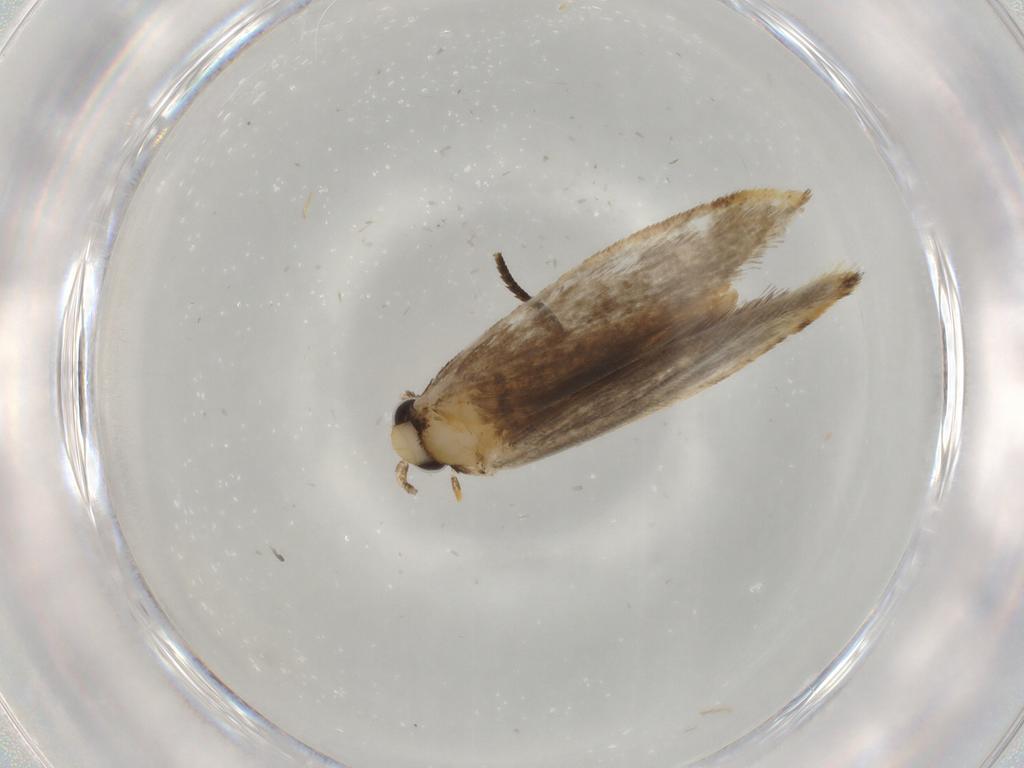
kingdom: Animalia
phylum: Arthropoda
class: Insecta
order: Lepidoptera
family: Tineidae
